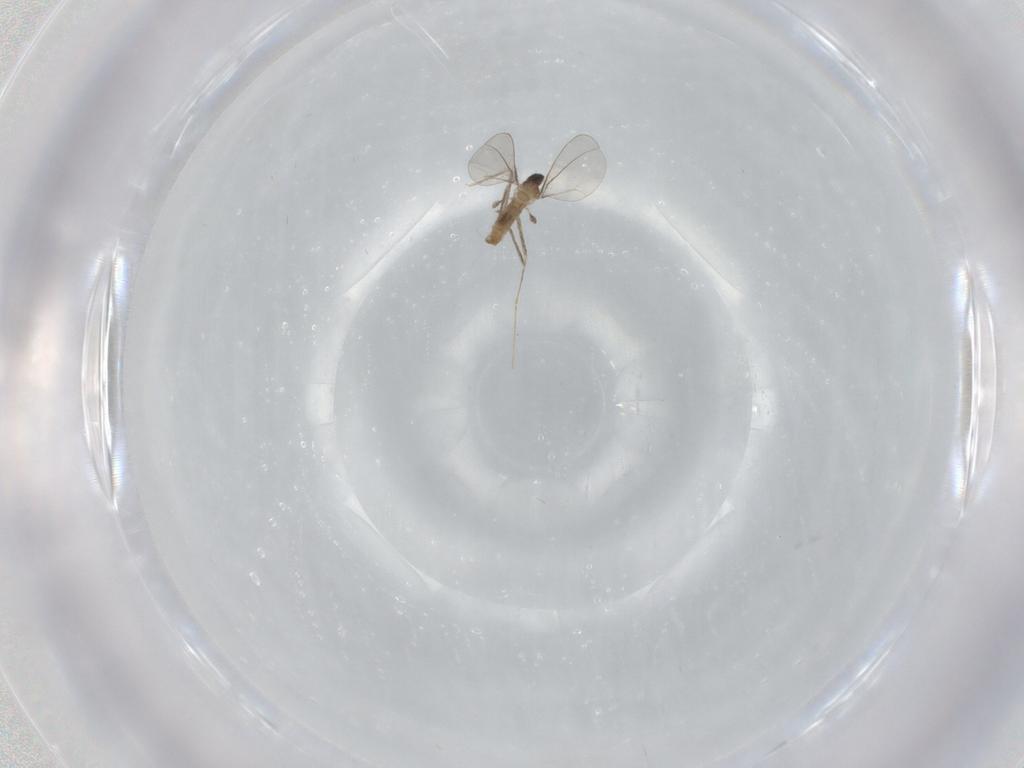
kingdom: Animalia
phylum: Arthropoda
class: Insecta
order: Diptera
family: Cecidomyiidae
